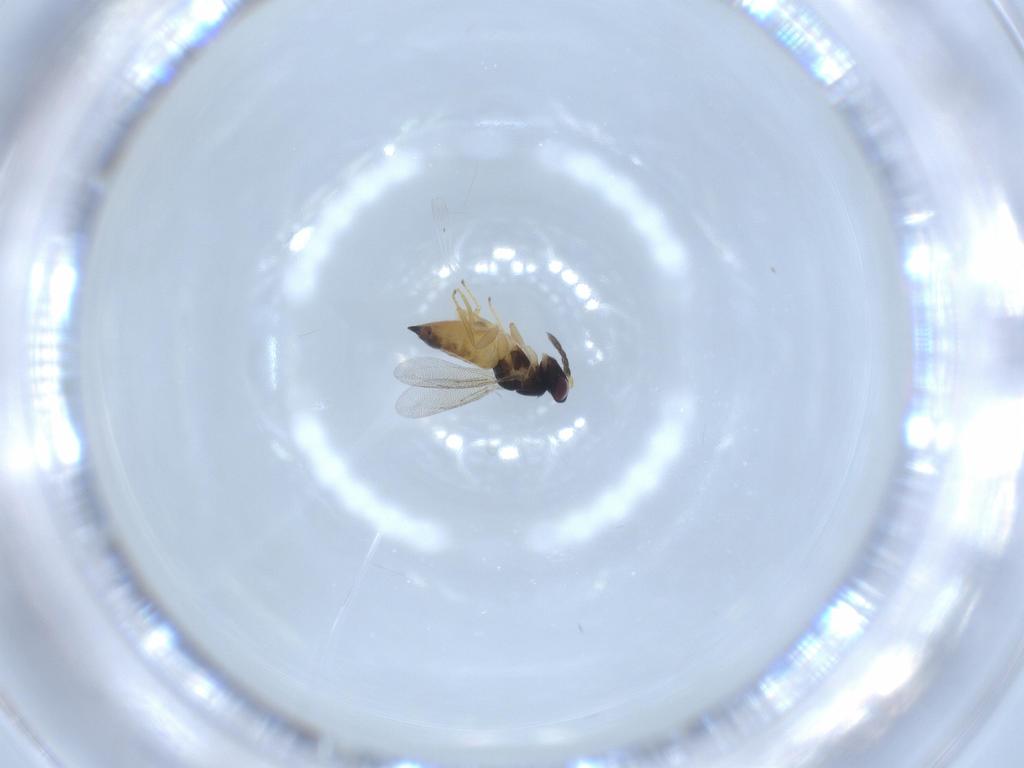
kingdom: Animalia
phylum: Arthropoda
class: Insecta
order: Hymenoptera
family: Eulophidae
